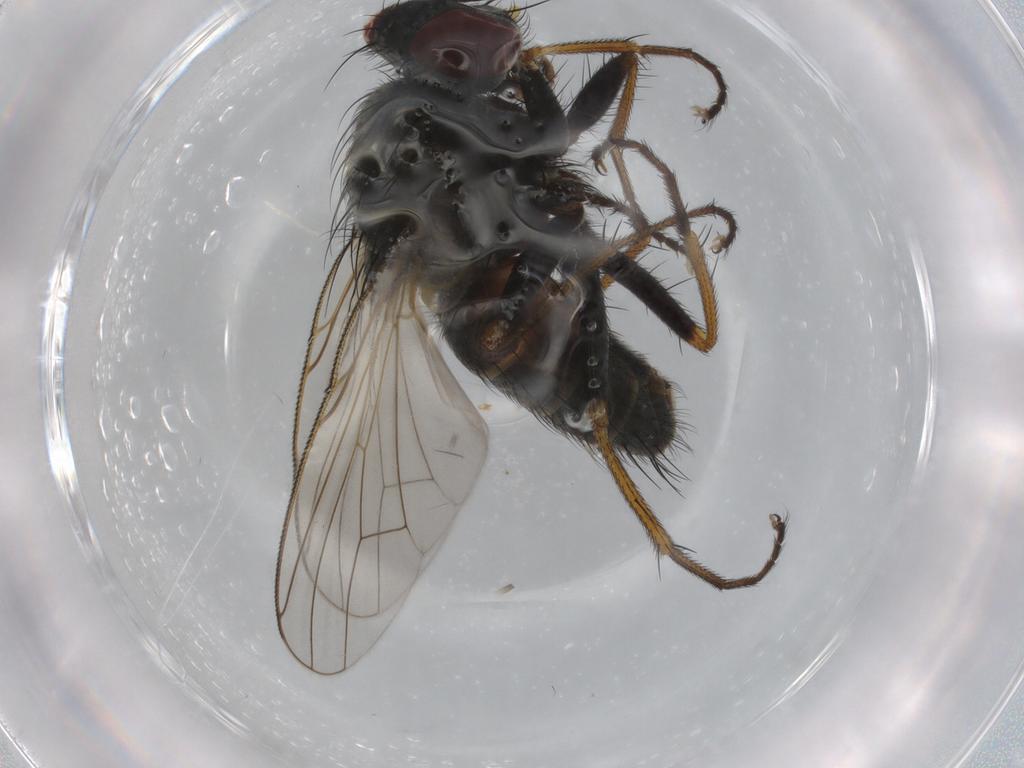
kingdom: Animalia
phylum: Arthropoda
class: Insecta
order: Diptera
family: Muscidae
